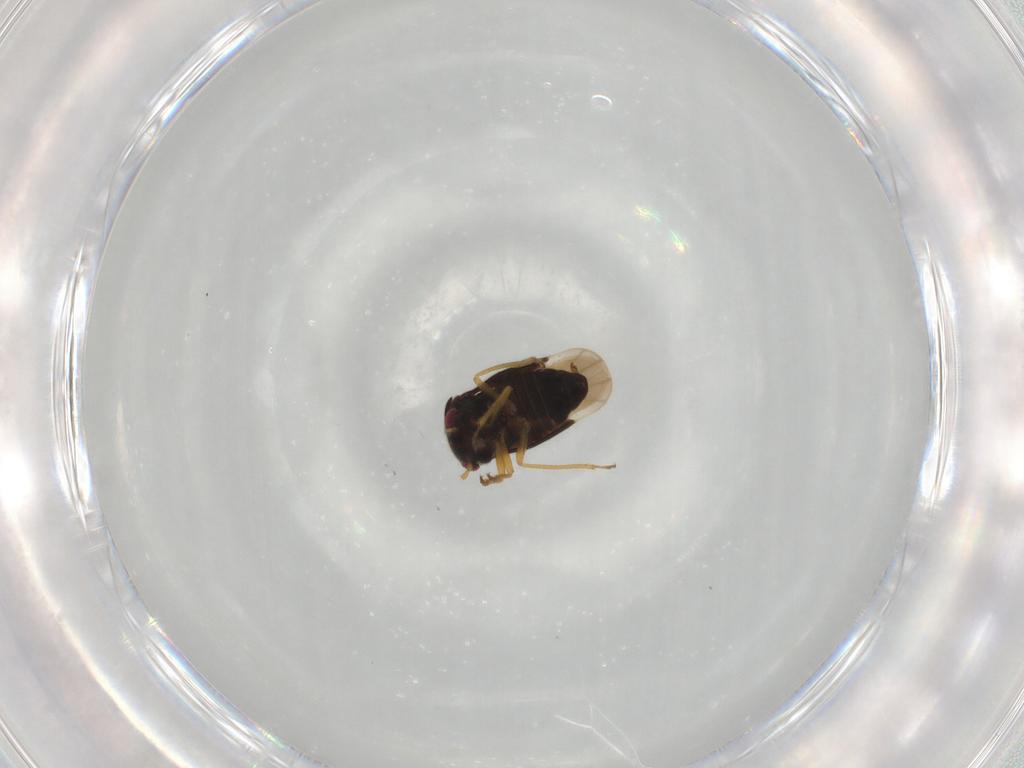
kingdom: Animalia
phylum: Arthropoda
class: Insecta
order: Hemiptera
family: Schizopteridae
